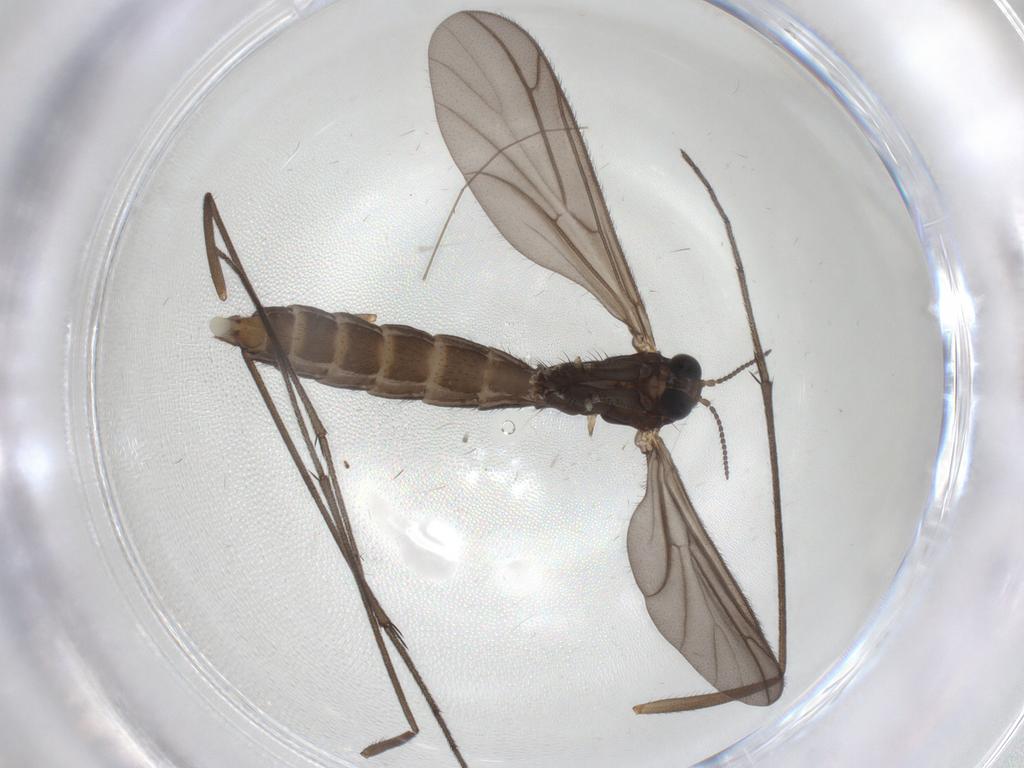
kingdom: Animalia
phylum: Arthropoda
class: Insecta
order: Diptera
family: Keroplatidae
